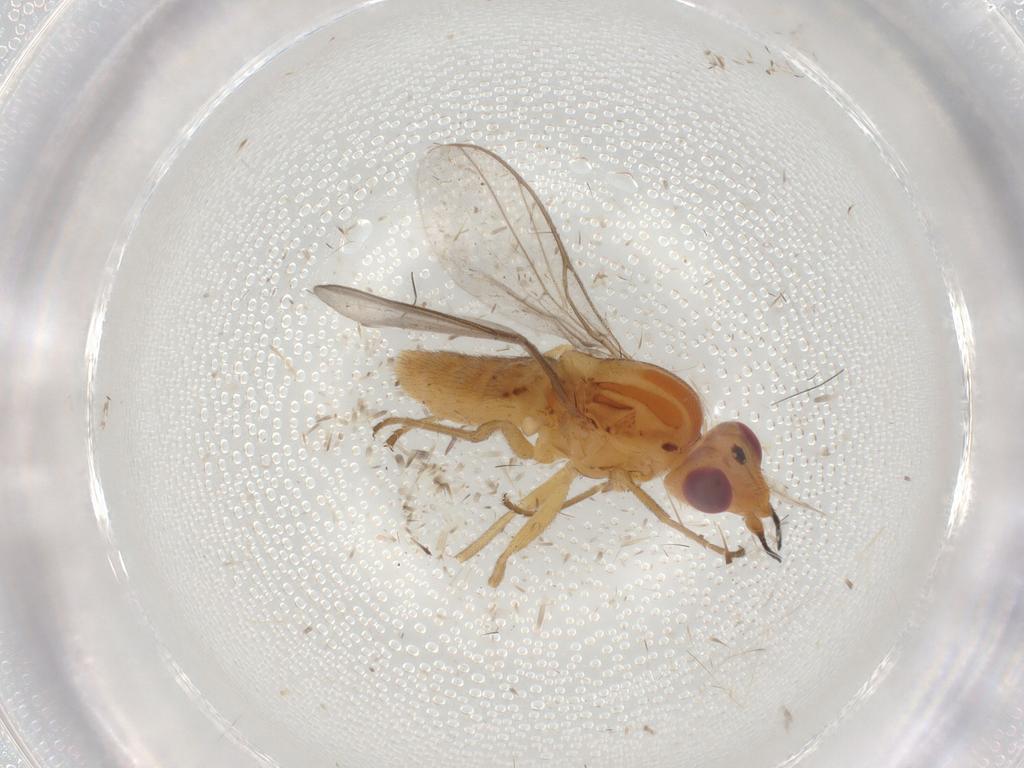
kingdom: Animalia
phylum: Arthropoda
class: Insecta
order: Diptera
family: Chloropidae
